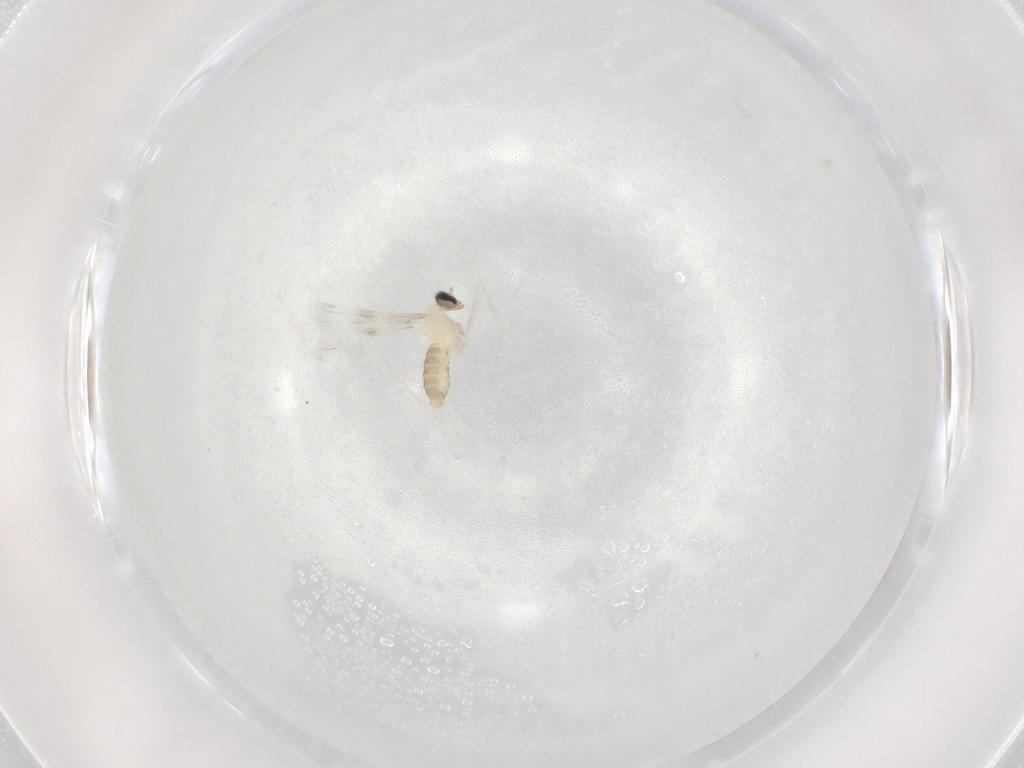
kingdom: Animalia
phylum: Arthropoda
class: Insecta
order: Diptera
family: Cecidomyiidae
